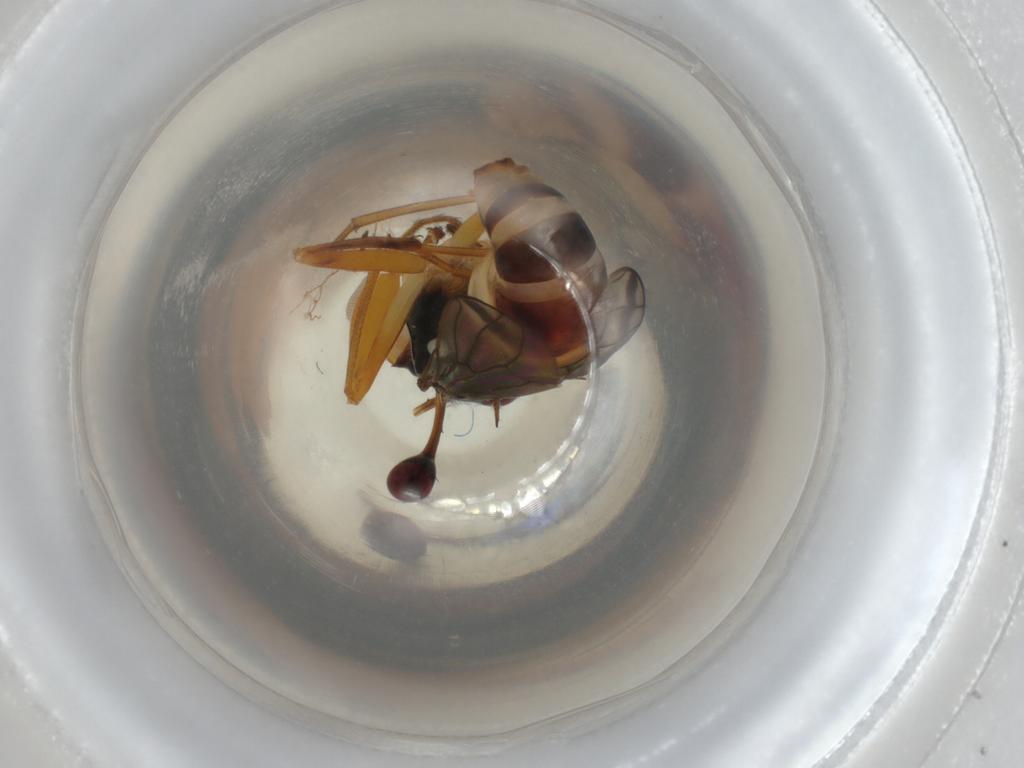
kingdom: Animalia
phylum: Arthropoda
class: Insecta
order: Diptera
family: Diopsidae
